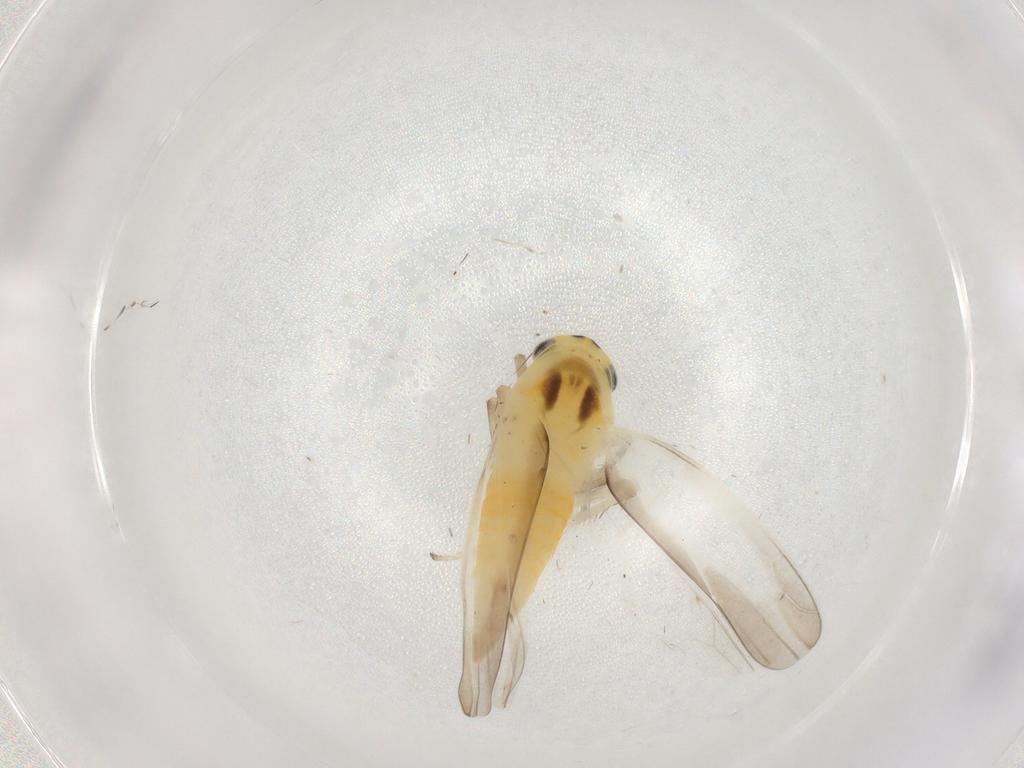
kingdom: Animalia
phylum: Arthropoda
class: Insecta
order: Hemiptera
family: Cicadellidae
